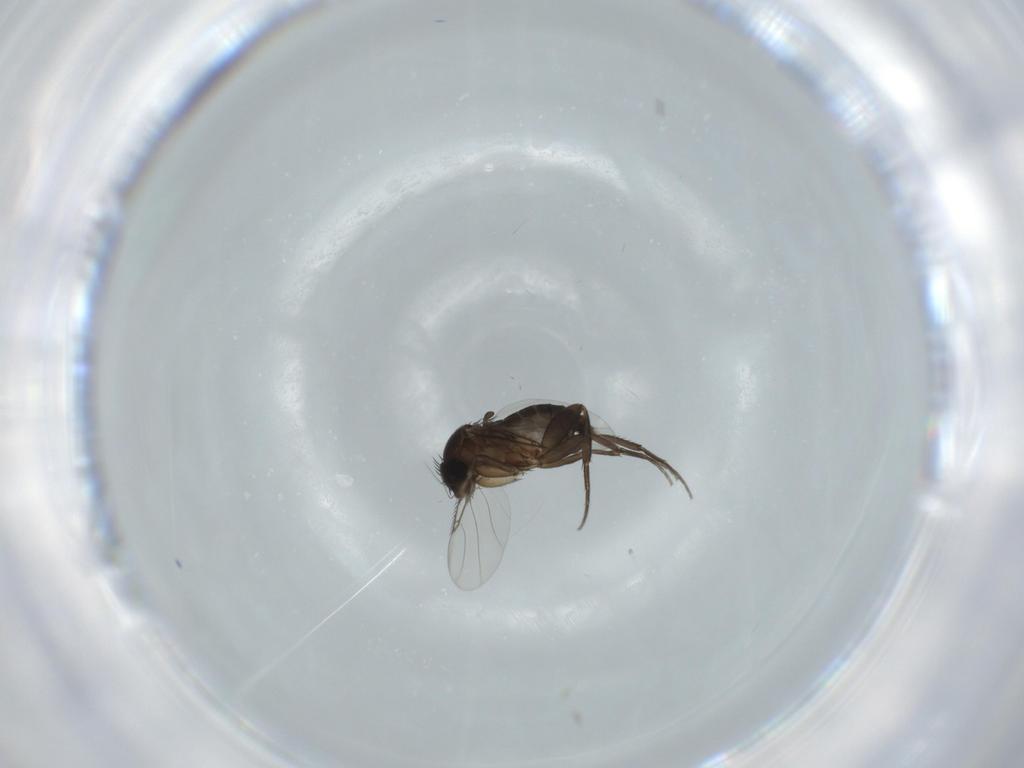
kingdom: Animalia
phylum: Arthropoda
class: Insecta
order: Diptera
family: Phoridae
